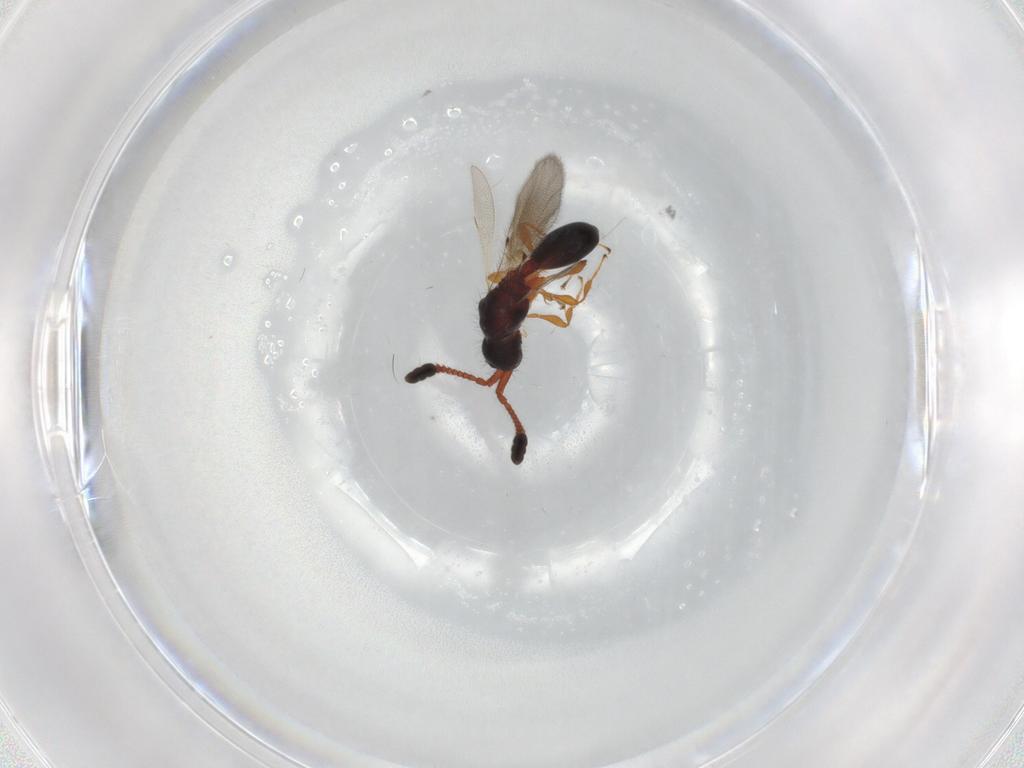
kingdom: Animalia
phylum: Arthropoda
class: Insecta
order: Hymenoptera
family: Diapriidae
